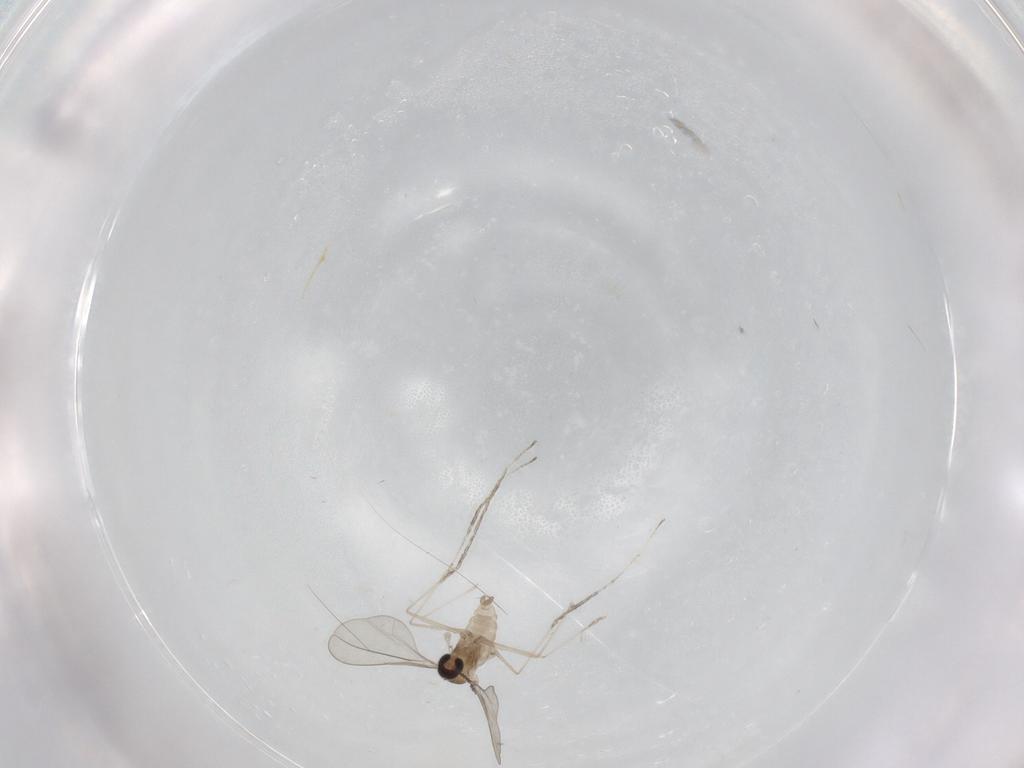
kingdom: Animalia
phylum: Arthropoda
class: Insecta
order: Diptera
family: Cecidomyiidae
